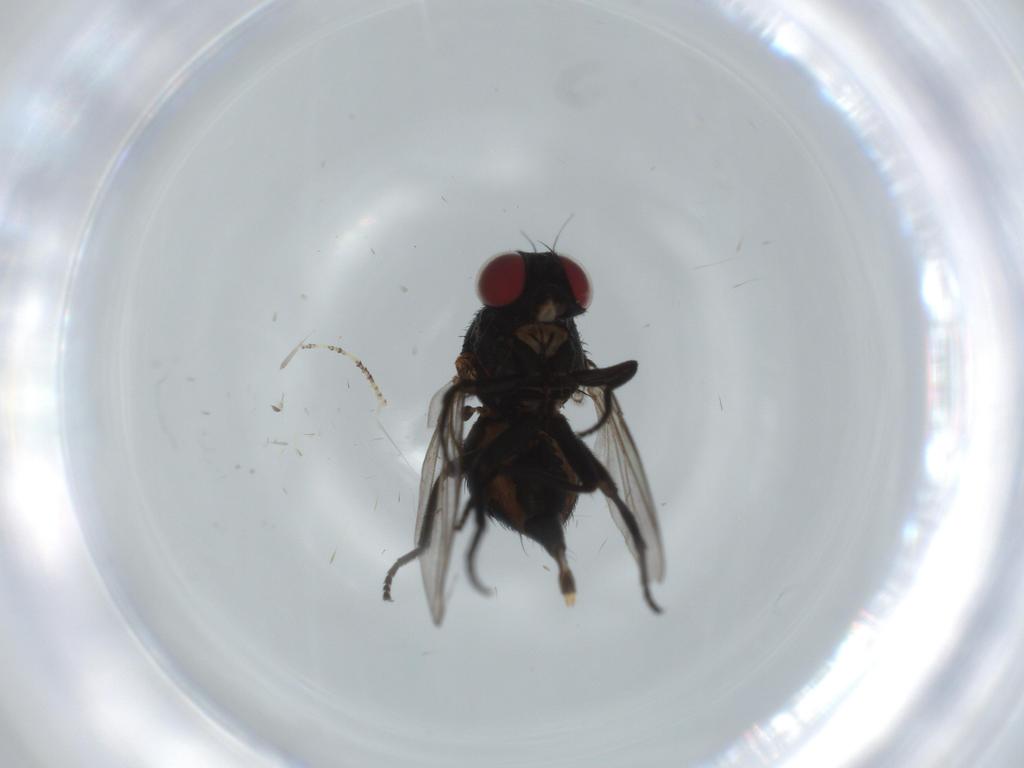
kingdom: Animalia
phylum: Arthropoda
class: Insecta
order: Diptera
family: Agromyzidae
